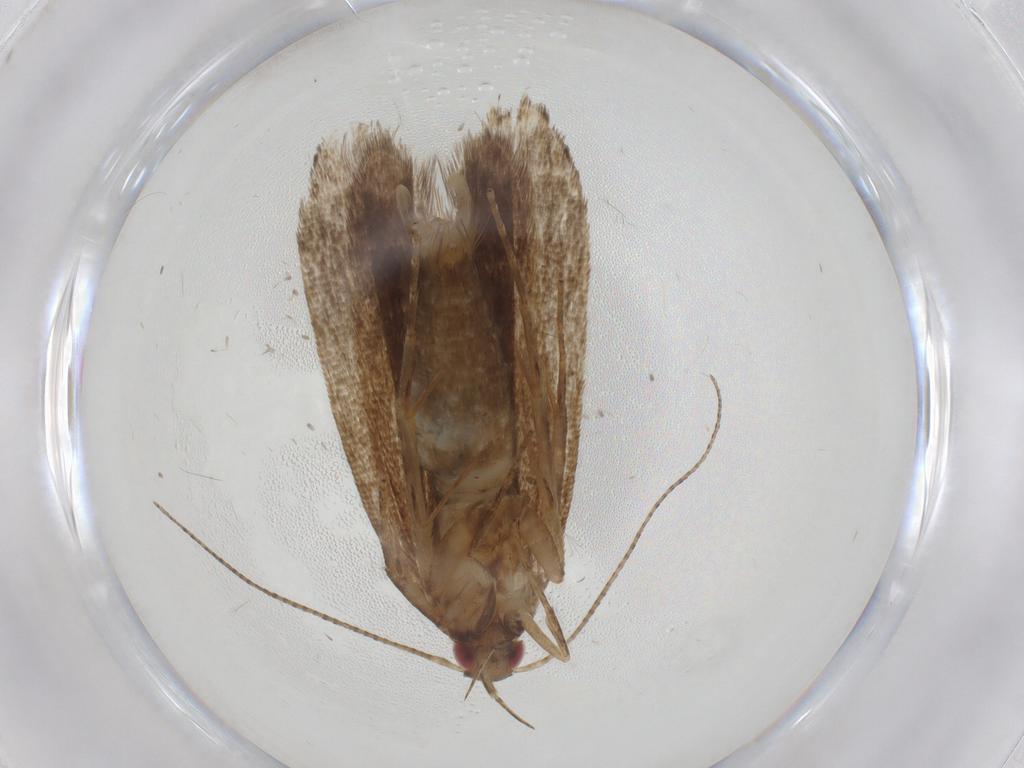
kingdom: Animalia
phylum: Arthropoda
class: Insecta
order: Lepidoptera
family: Gelechiidae
